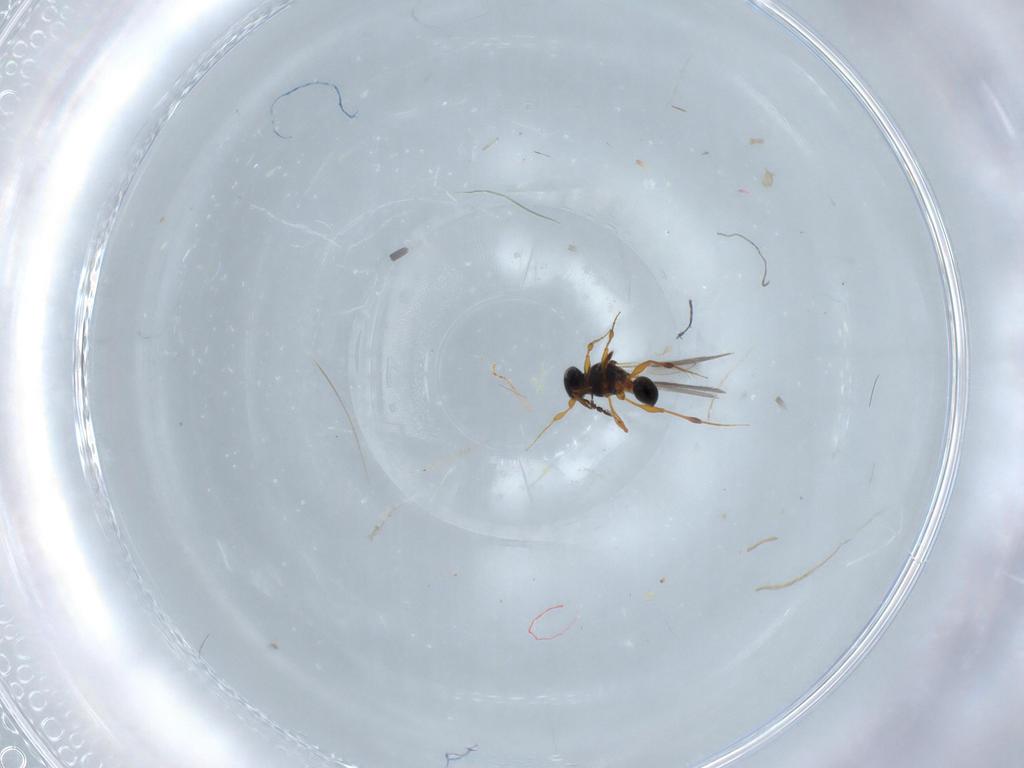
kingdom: Animalia
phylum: Arthropoda
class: Insecta
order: Hymenoptera
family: Platygastridae
